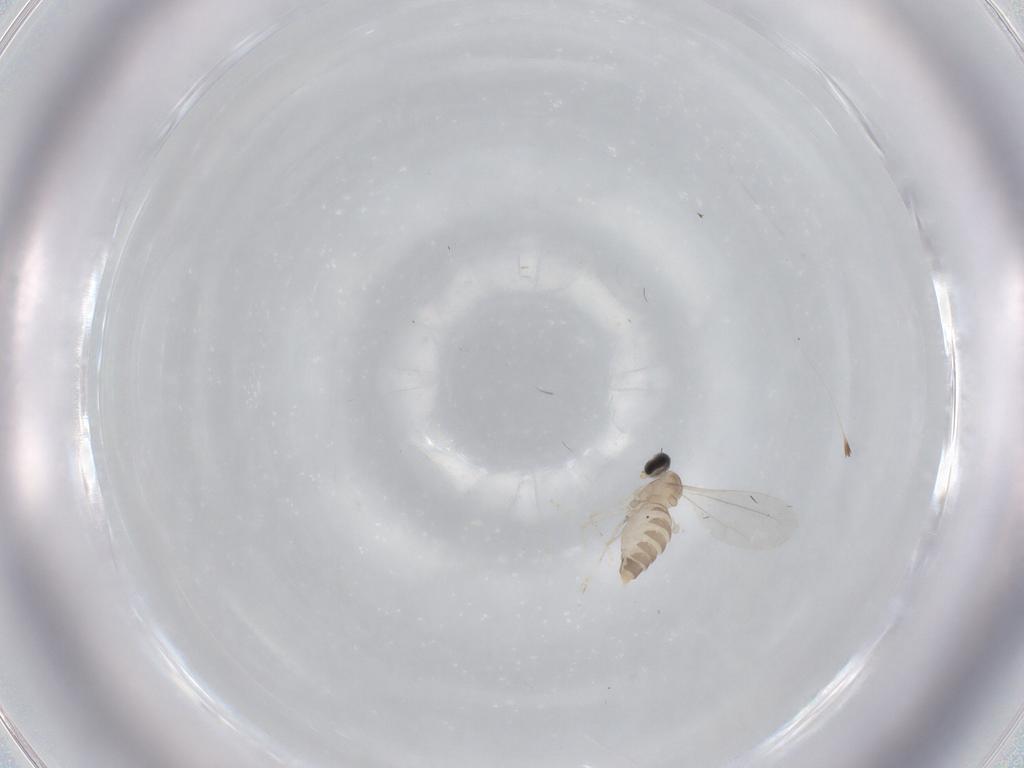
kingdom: Animalia
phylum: Arthropoda
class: Insecta
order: Diptera
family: Cecidomyiidae
